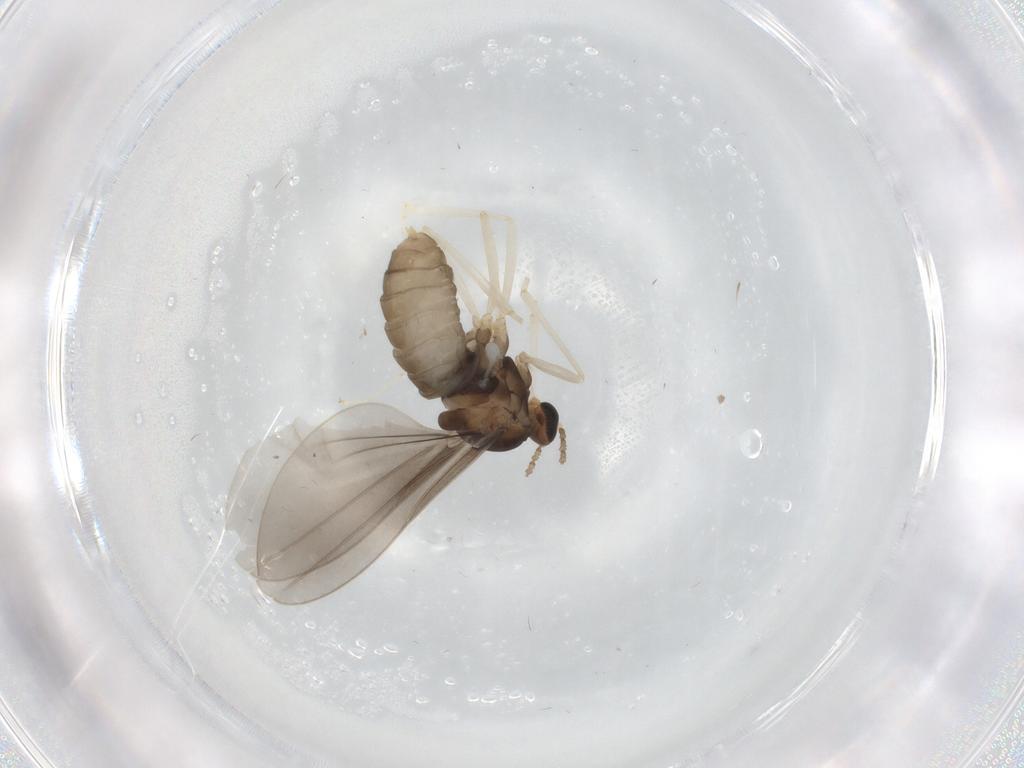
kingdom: Animalia
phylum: Arthropoda
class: Insecta
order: Diptera
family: Cecidomyiidae
